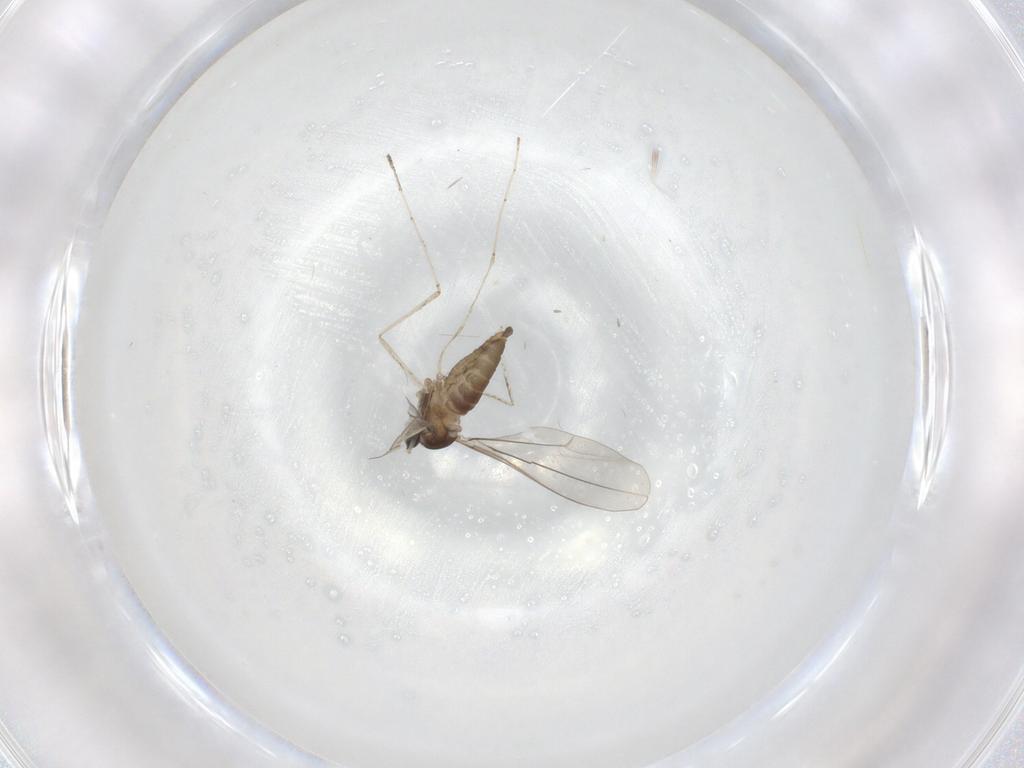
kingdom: Animalia
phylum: Arthropoda
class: Insecta
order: Diptera
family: Cecidomyiidae
